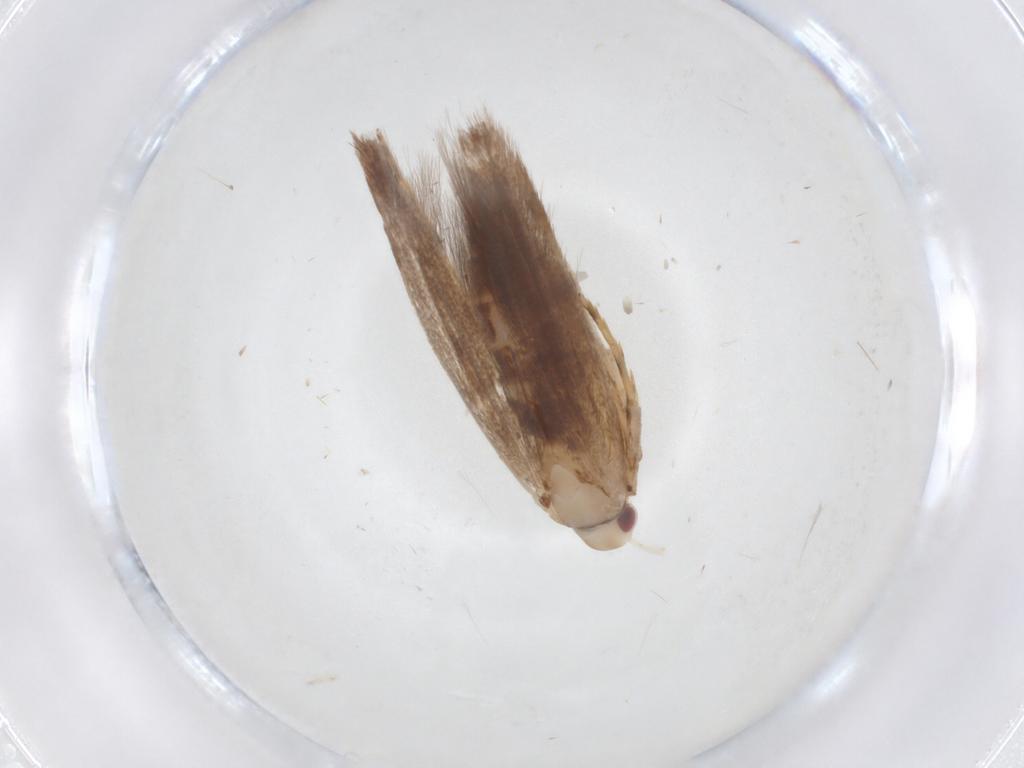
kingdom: Animalia
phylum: Arthropoda
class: Insecta
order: Lepidoptera
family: Cosmopterigidae
